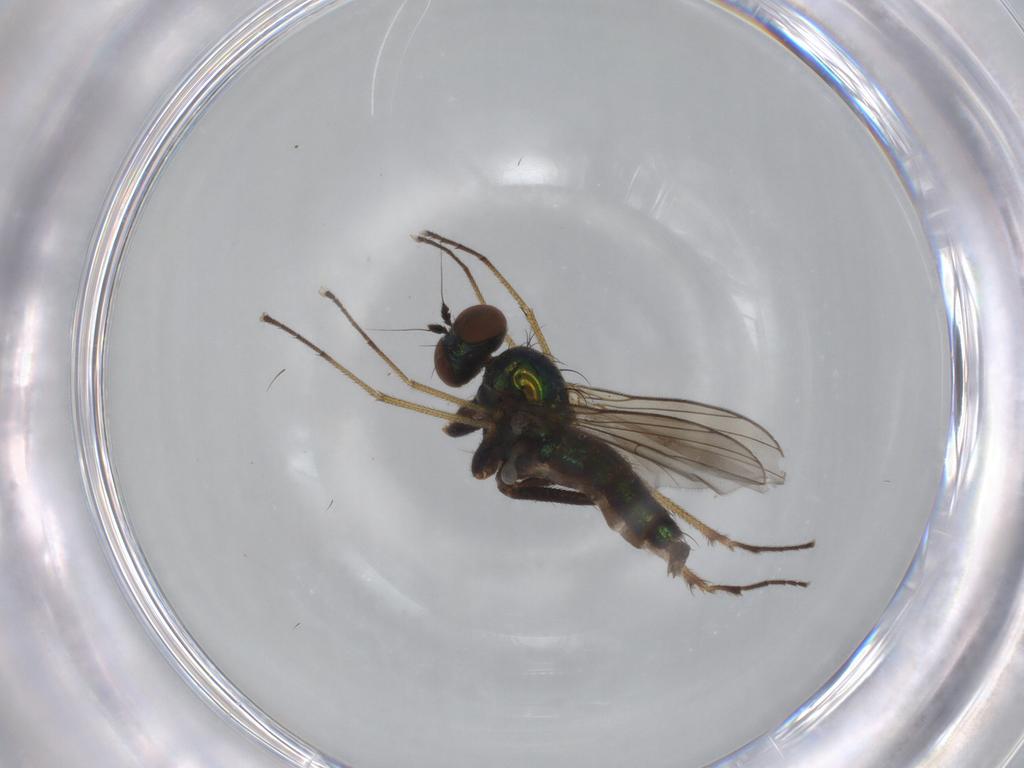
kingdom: Animalia
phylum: Arthropoda
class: Insecta
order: Diptera
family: Dolichopodidae
